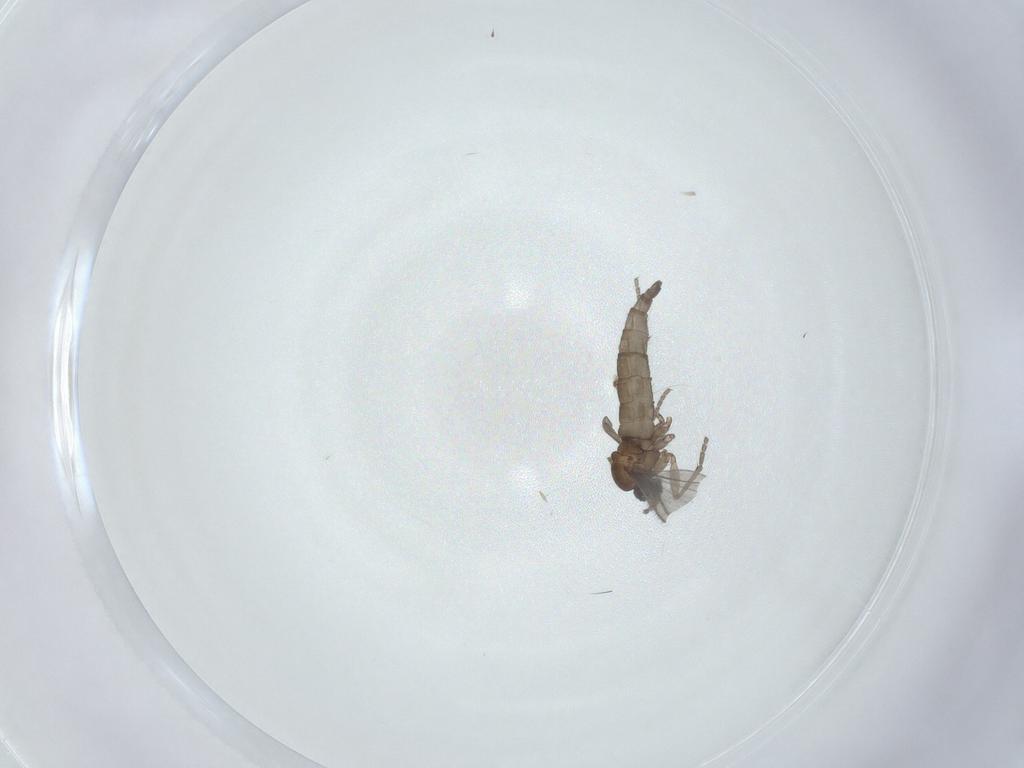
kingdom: Animalia
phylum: Arthropoda
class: Insecta
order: Diptera
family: Sciaridae
